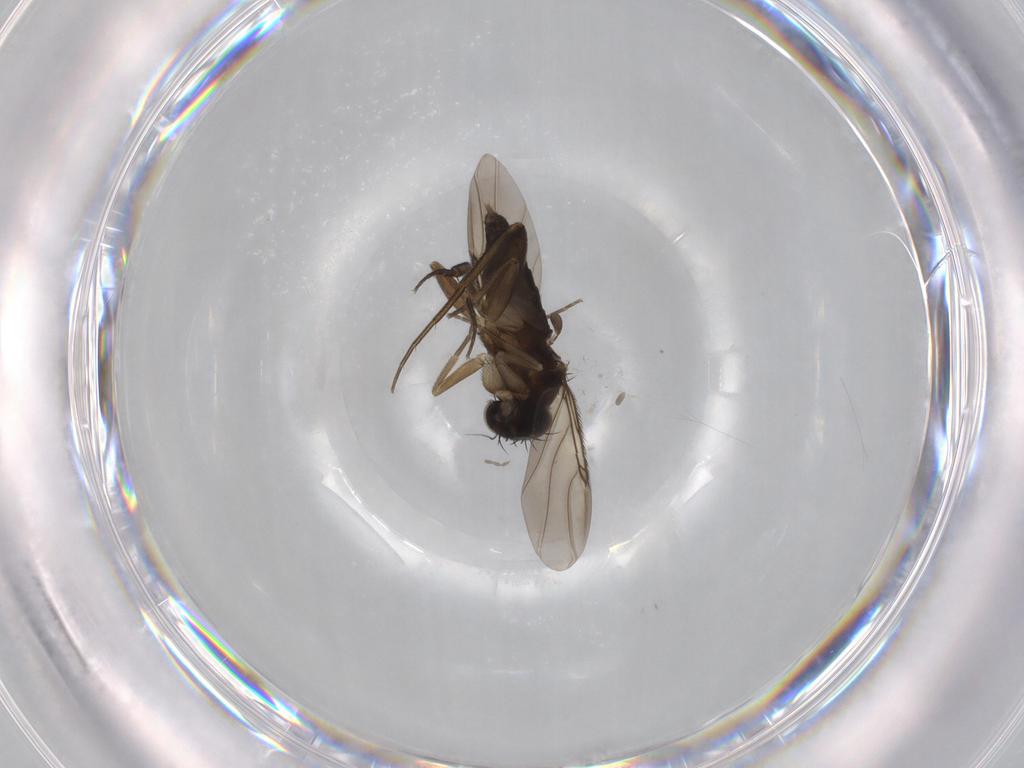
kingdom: Animalia
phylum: Arthropoda
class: Insecta
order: Diptera
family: Phoridae
